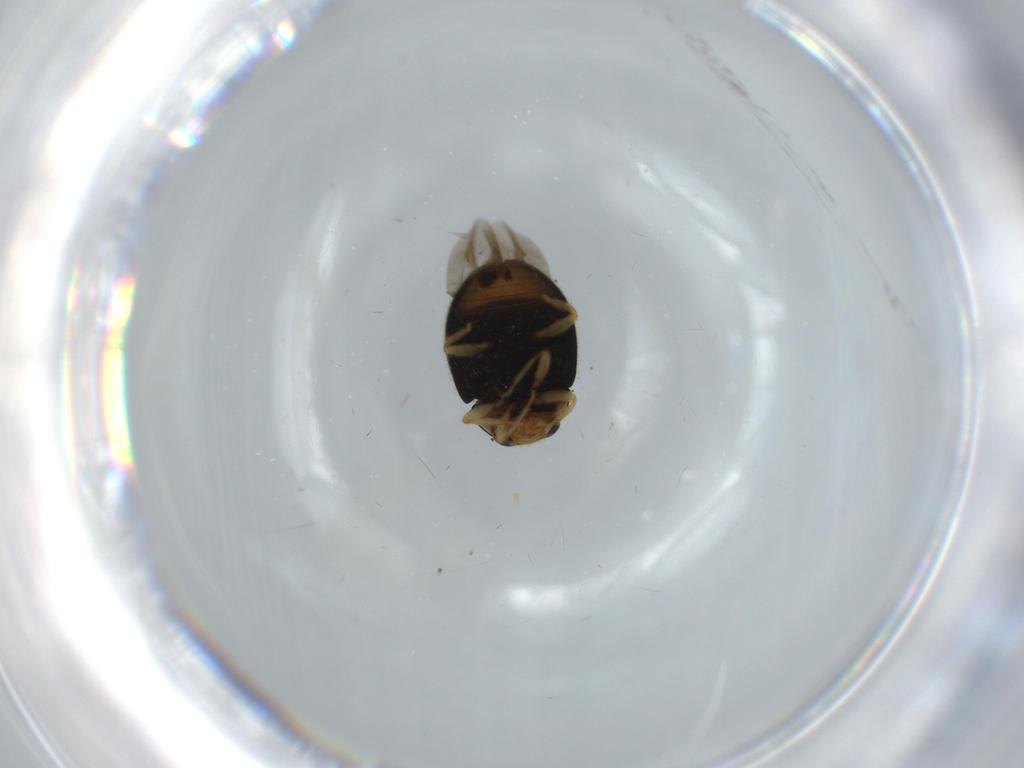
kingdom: Animalia
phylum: Arthropoda
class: Insecta
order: Coleoptera
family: Coccinellidae
